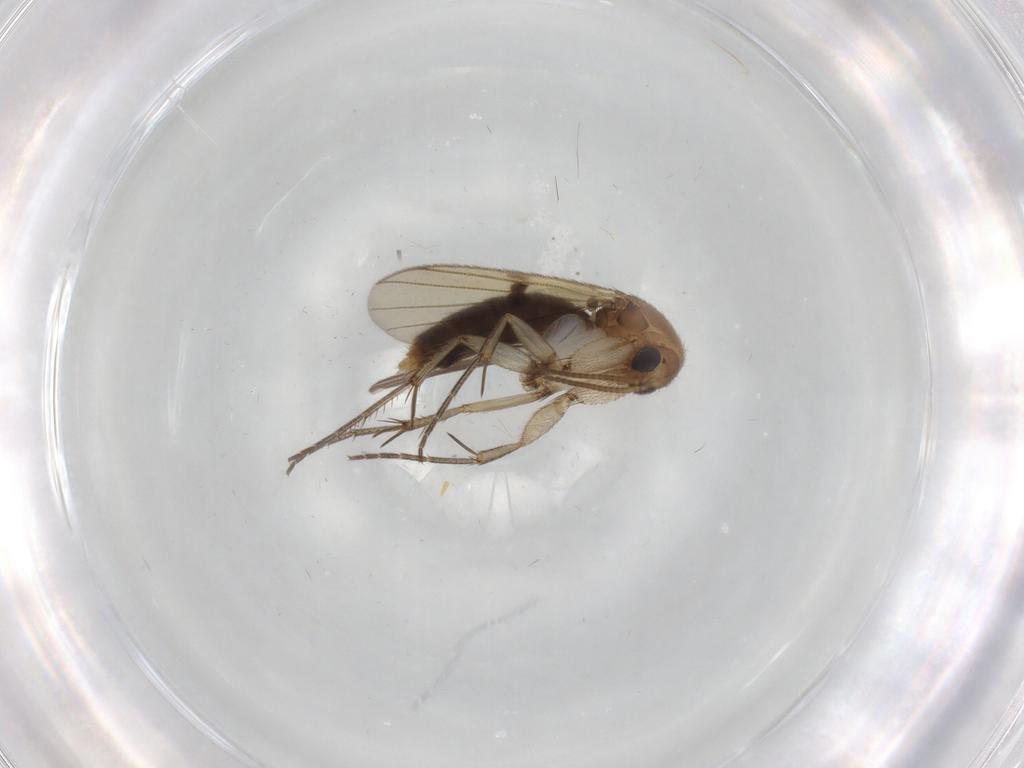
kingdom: Animalia
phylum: Arthropoda
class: Insecta
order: Diptera
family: Mycetophilidae
